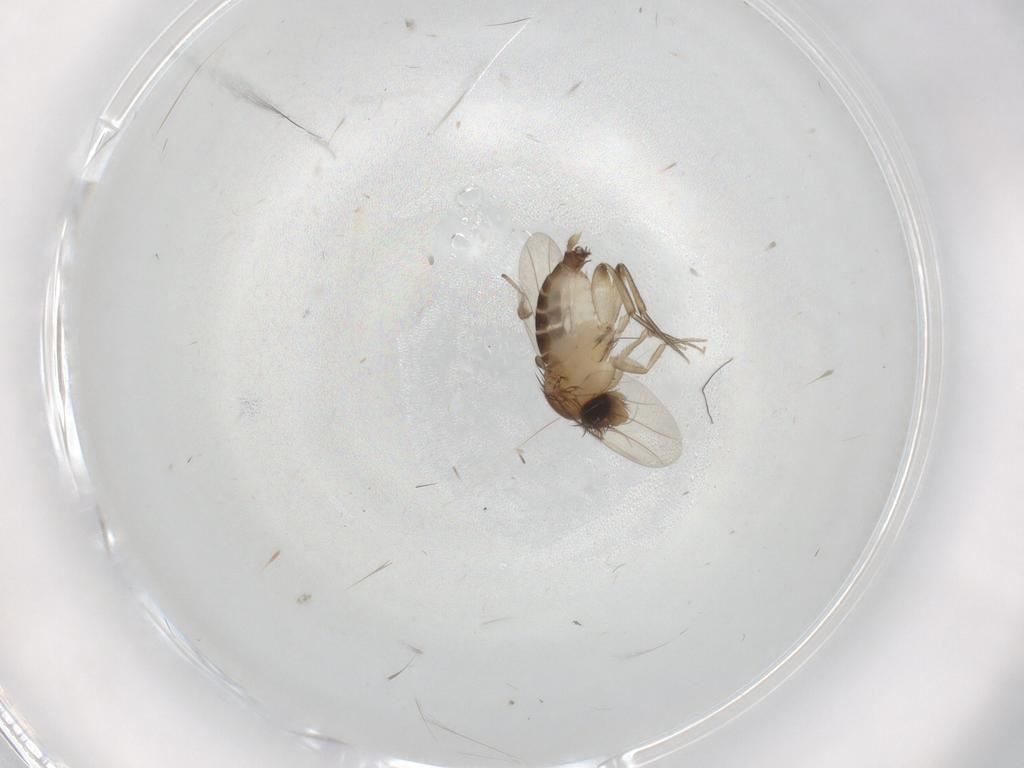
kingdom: Animalia
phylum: Arthropoda
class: Insecta
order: Diptera
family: Phoridae
